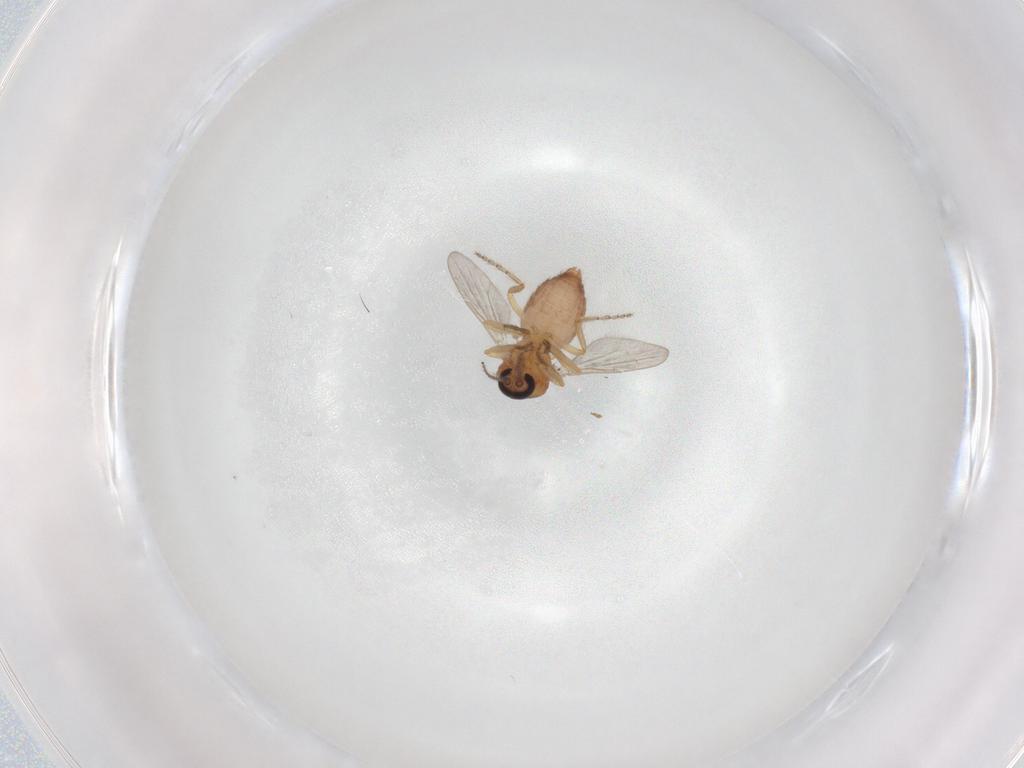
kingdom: Animalia
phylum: Arthropoda
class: Insecta
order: Diptera
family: Ceratopogonidae
